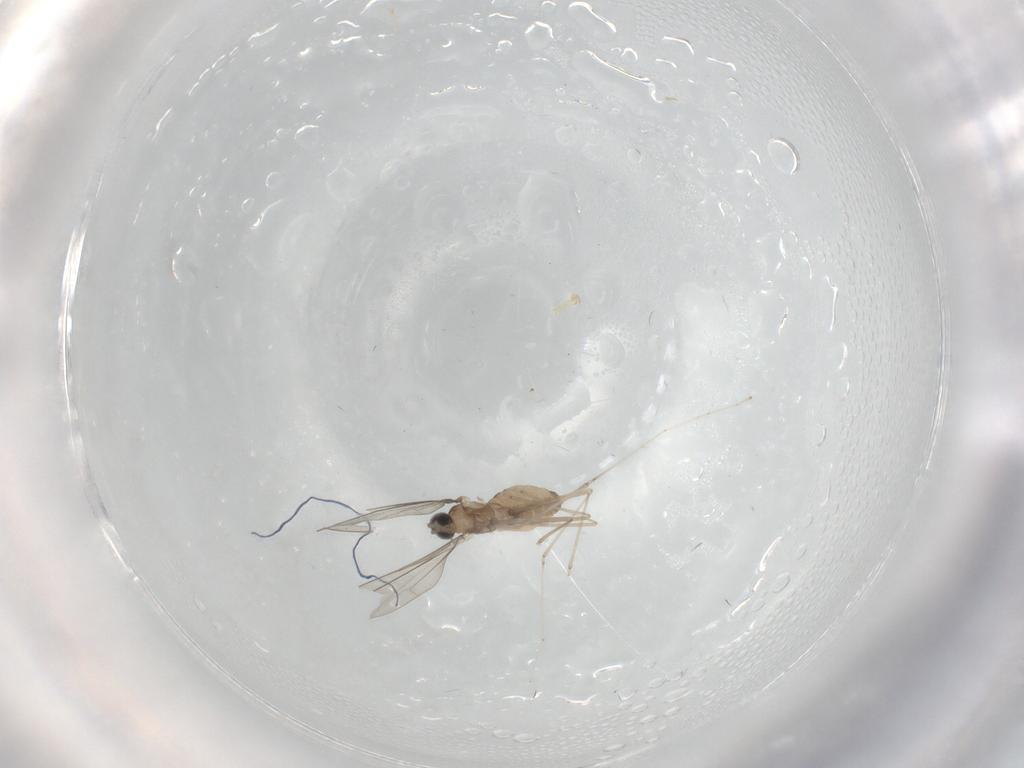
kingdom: Animalia
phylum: Arthropoda
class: Insecta
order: Diptera
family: Cecidomyiidae
